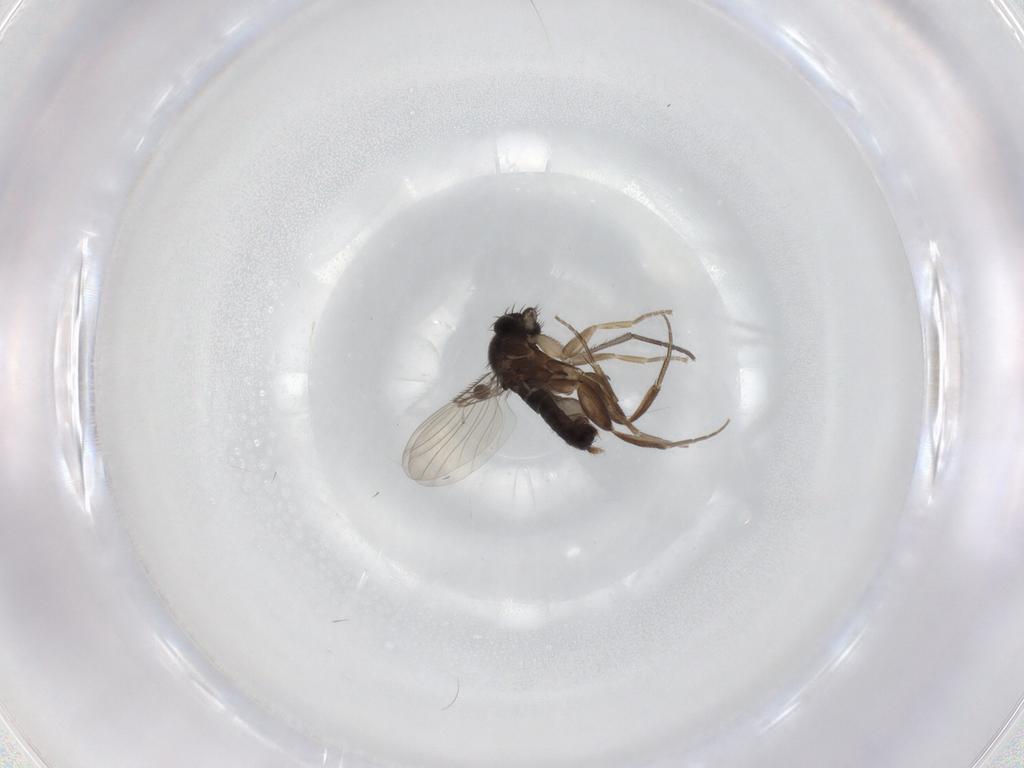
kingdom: Animalia
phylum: Arthropoda
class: Insecta
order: Diptera
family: Phoridae
